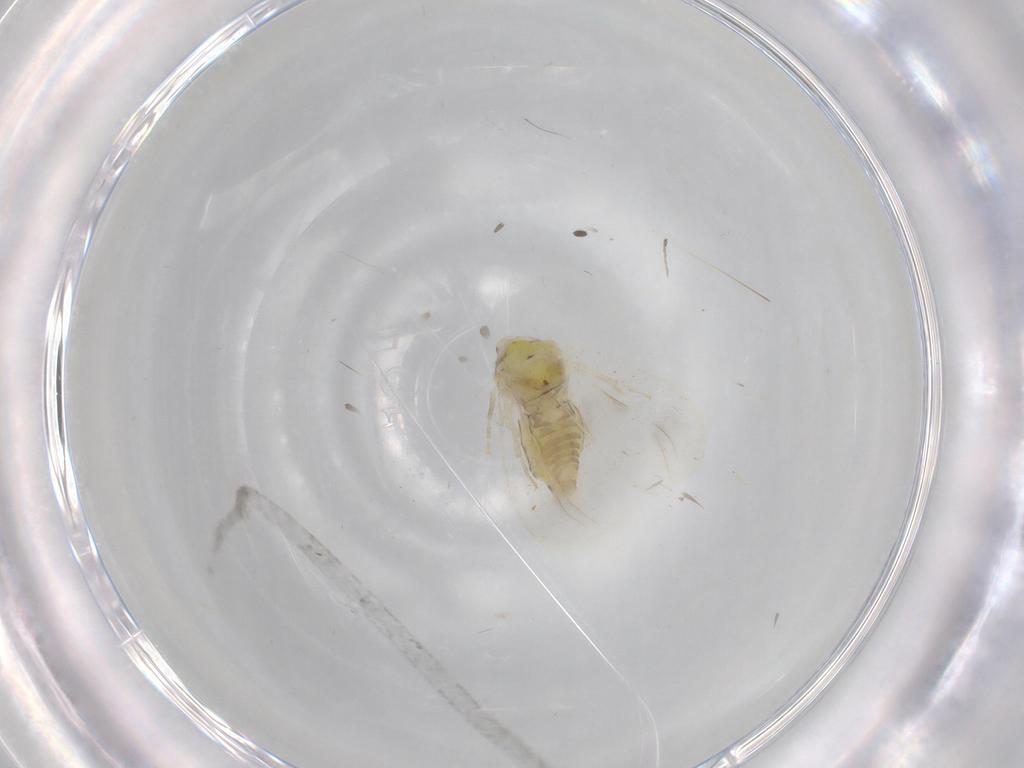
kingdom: Animalia
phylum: Arthropoda
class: Insecta
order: Hemiptera
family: Aleyrodidae
